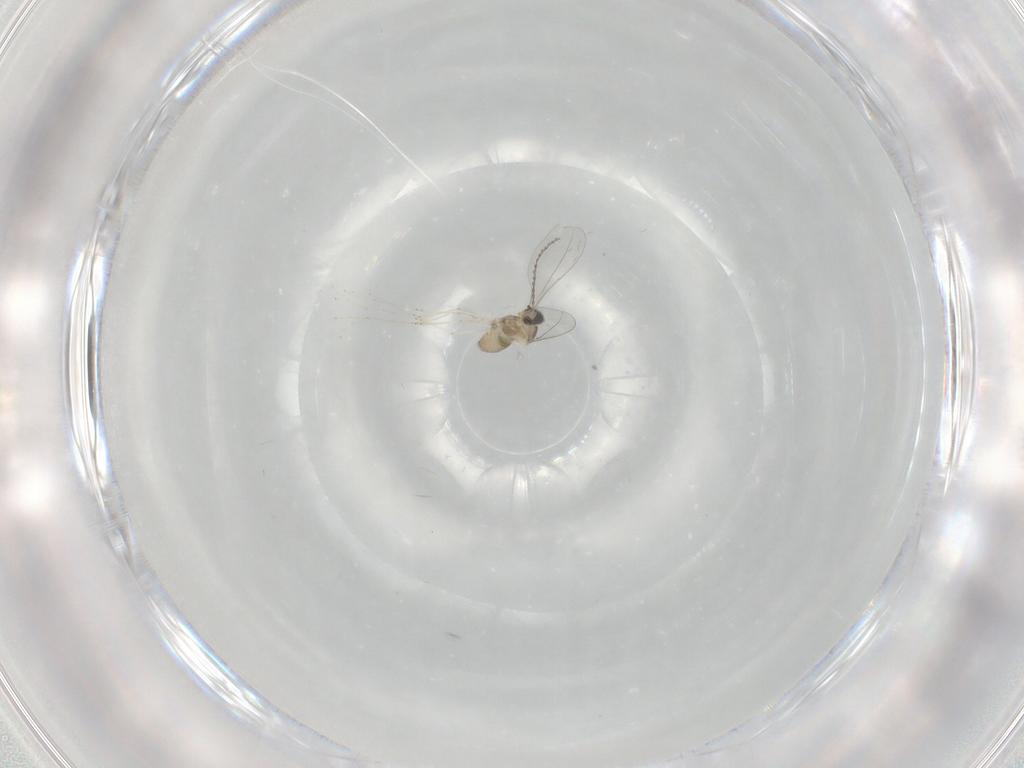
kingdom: Animalia
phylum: Arthropoda
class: Insecta
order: Diptera
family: Cecidomyiidae
